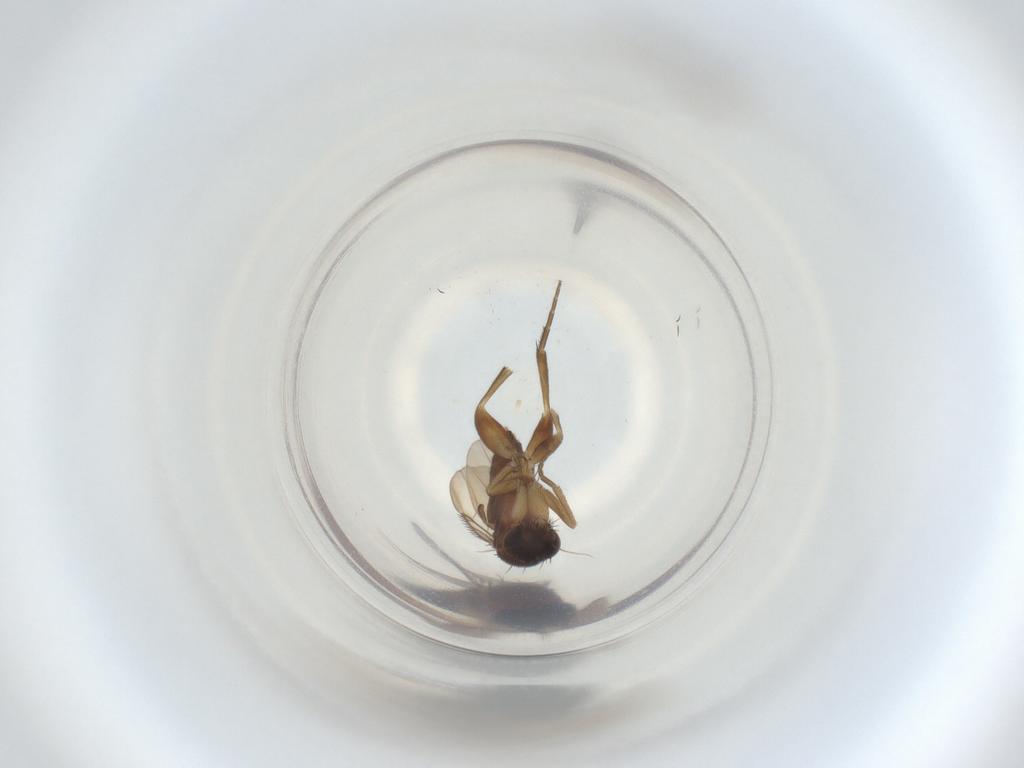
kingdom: Animalia
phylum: Arthropoda
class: Insecta
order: Diptera
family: Phoridae
